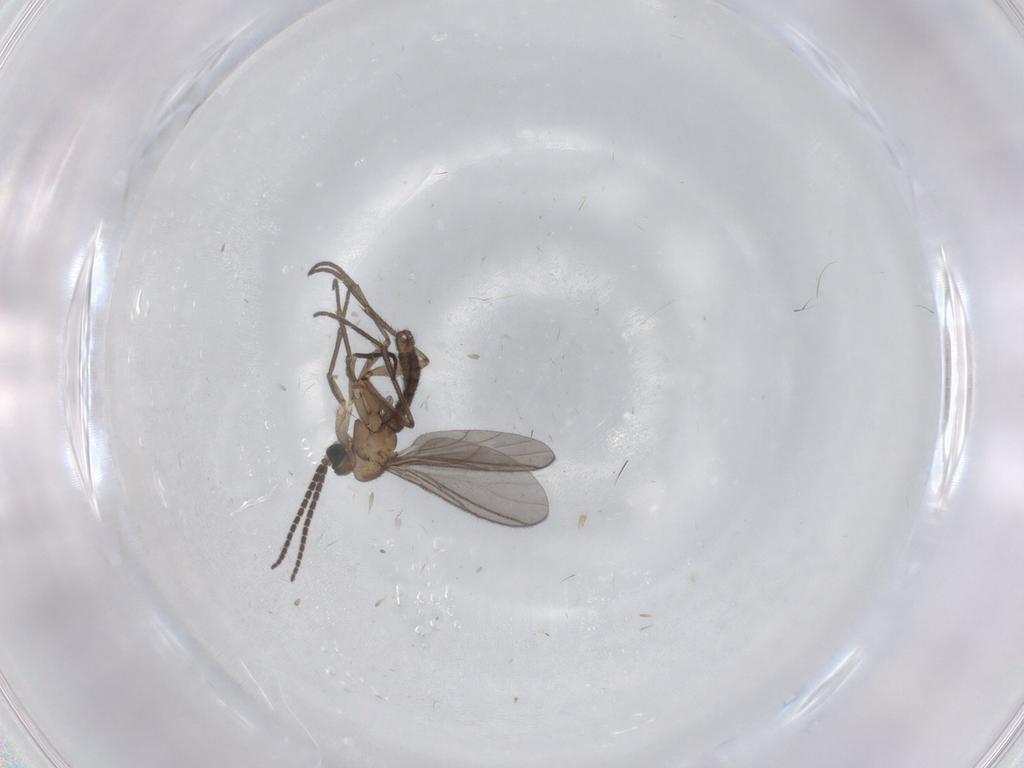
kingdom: Animalia
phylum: Arthropoda
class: Insecta
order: Diptera
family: Sciaridae
